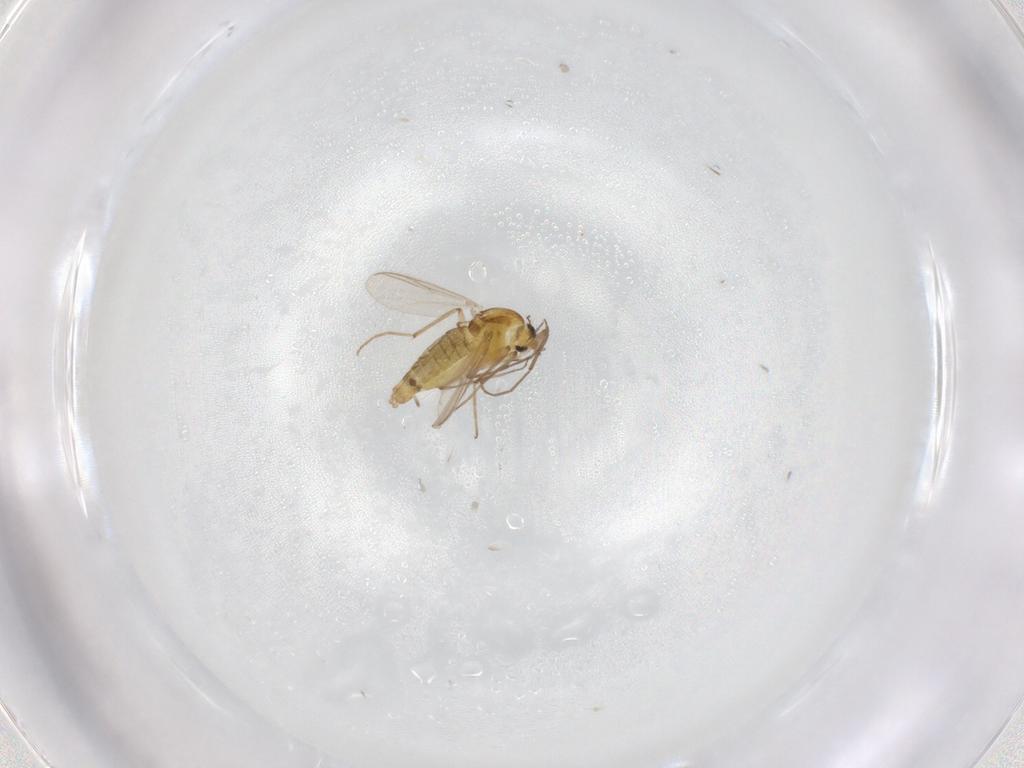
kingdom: Animalia
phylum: Arthropoda
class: Insecta
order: Diptera
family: Chironomidae
